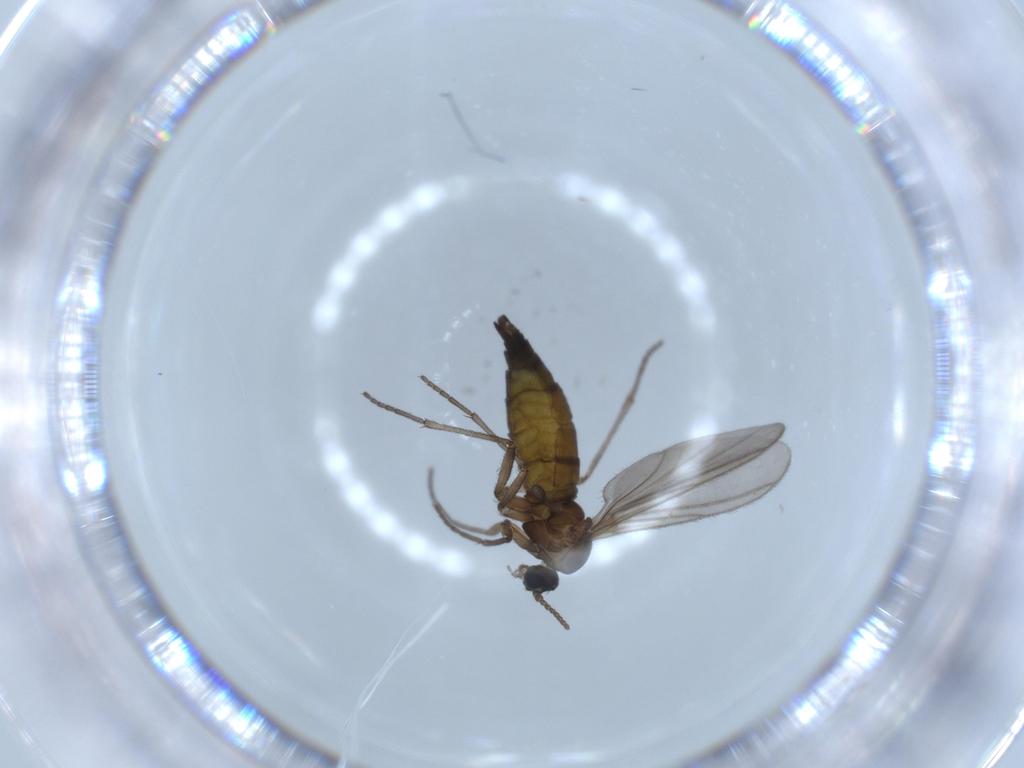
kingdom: Animalia
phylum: Arthropoda
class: Insecta
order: Diptera
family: Sciaridae
